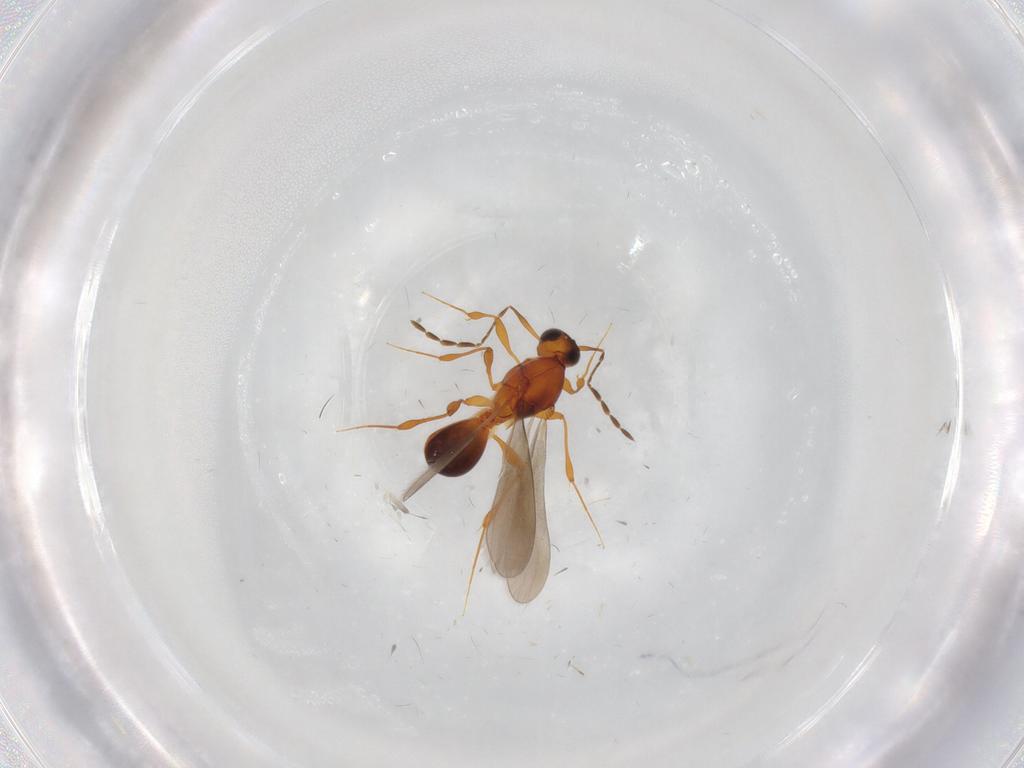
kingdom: Animalia
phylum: Arthropoda
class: Insecta
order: Hymenoptera
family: Platygastridae
